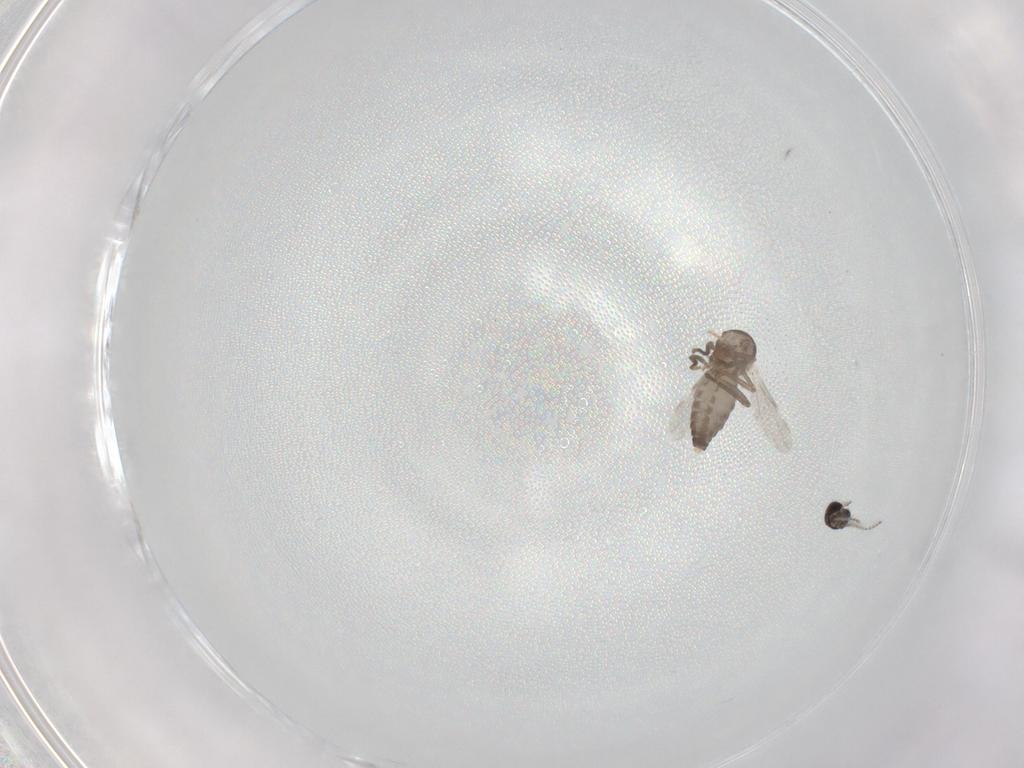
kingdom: Animalia
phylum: Arthropoda
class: Insecta
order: Diptera
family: Ceratopogonidae
